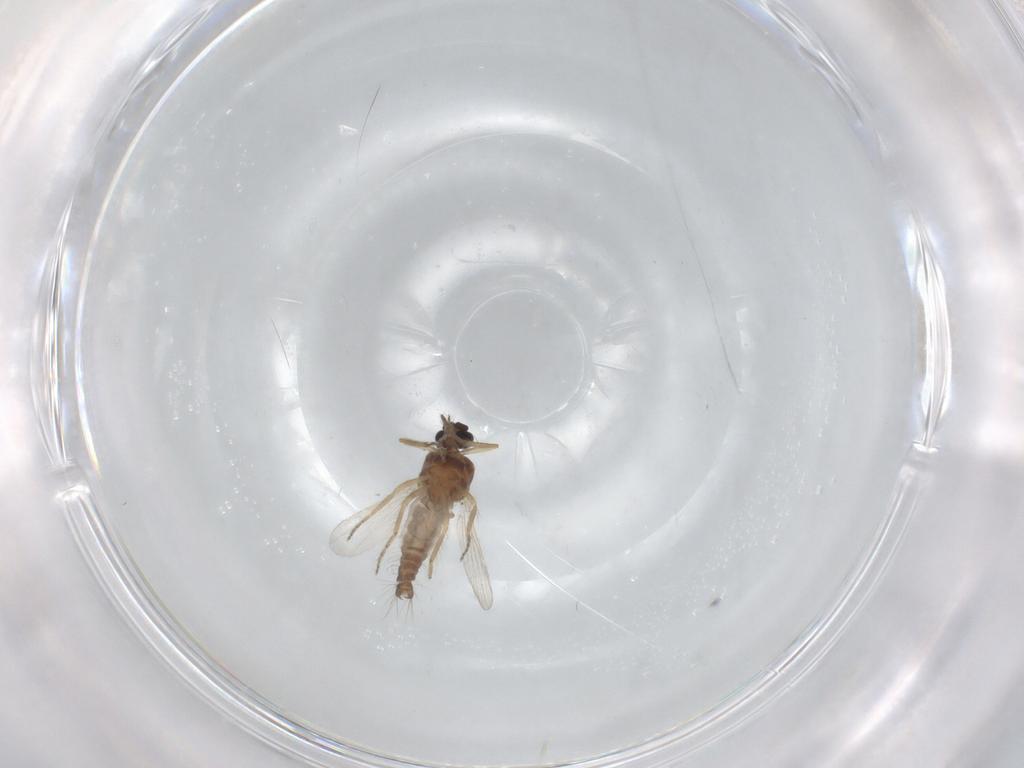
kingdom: Animalia
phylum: Arthropoda
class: Insecta
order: Diptera
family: Ceratopogonidae
